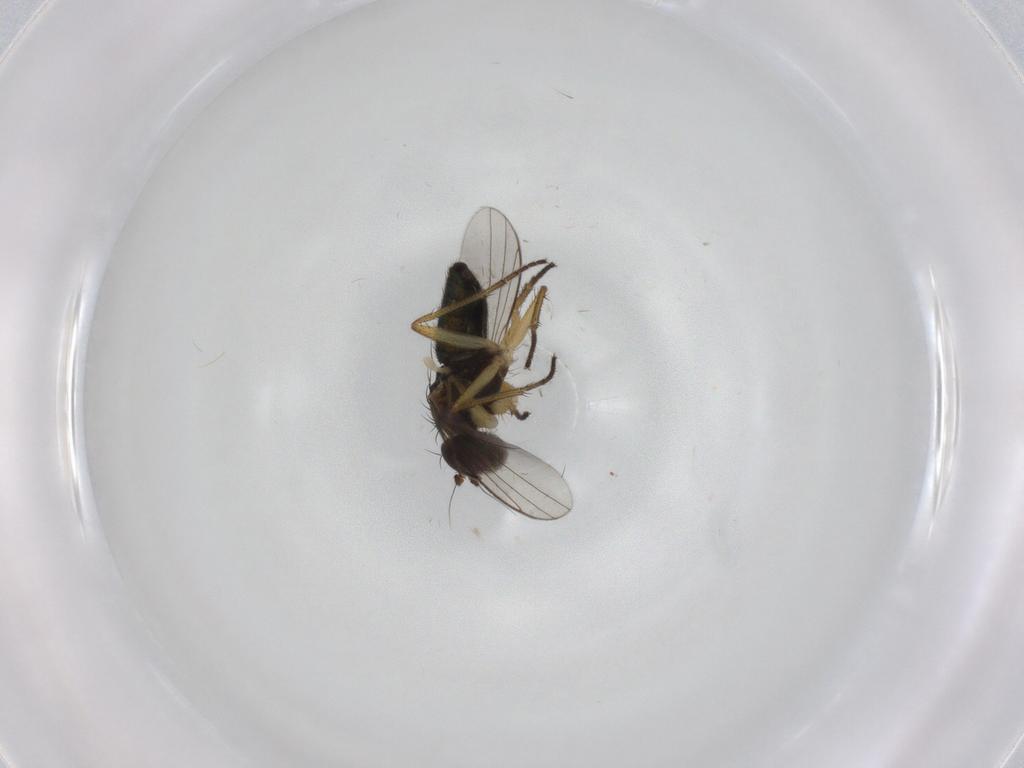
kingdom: Animalia
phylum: Arthropoda
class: Insecta
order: Diptera
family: Dolichopodidae
